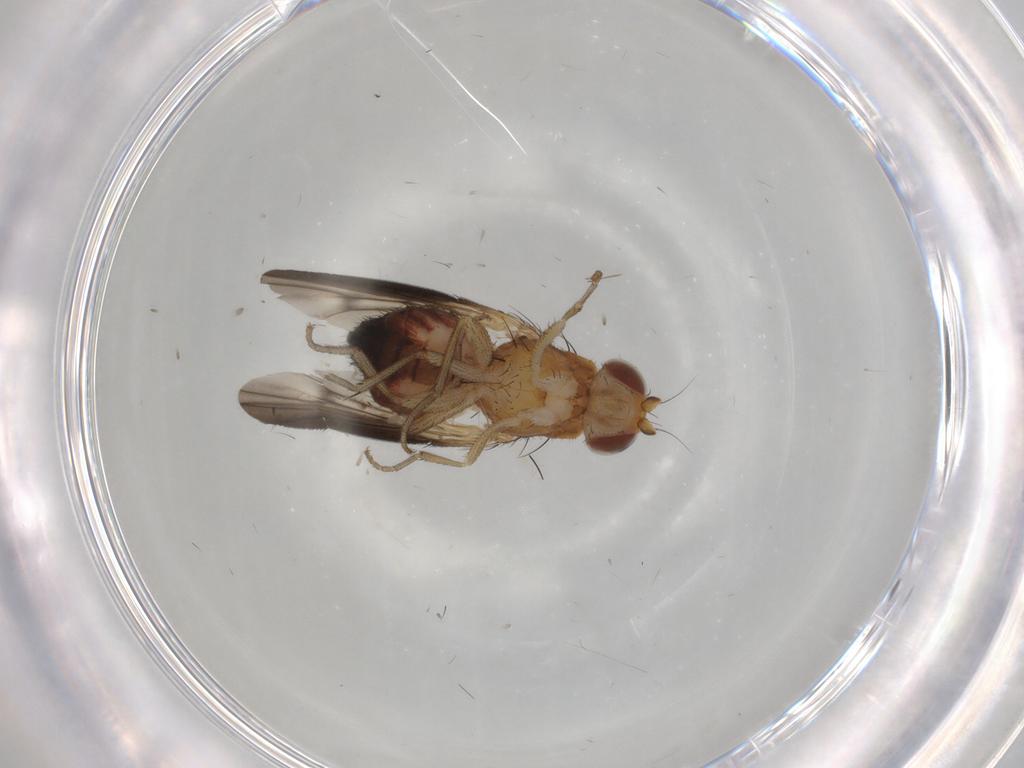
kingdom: Animalia
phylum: Arthropoda
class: Insecta
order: Diptera
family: Heleomyzidae
